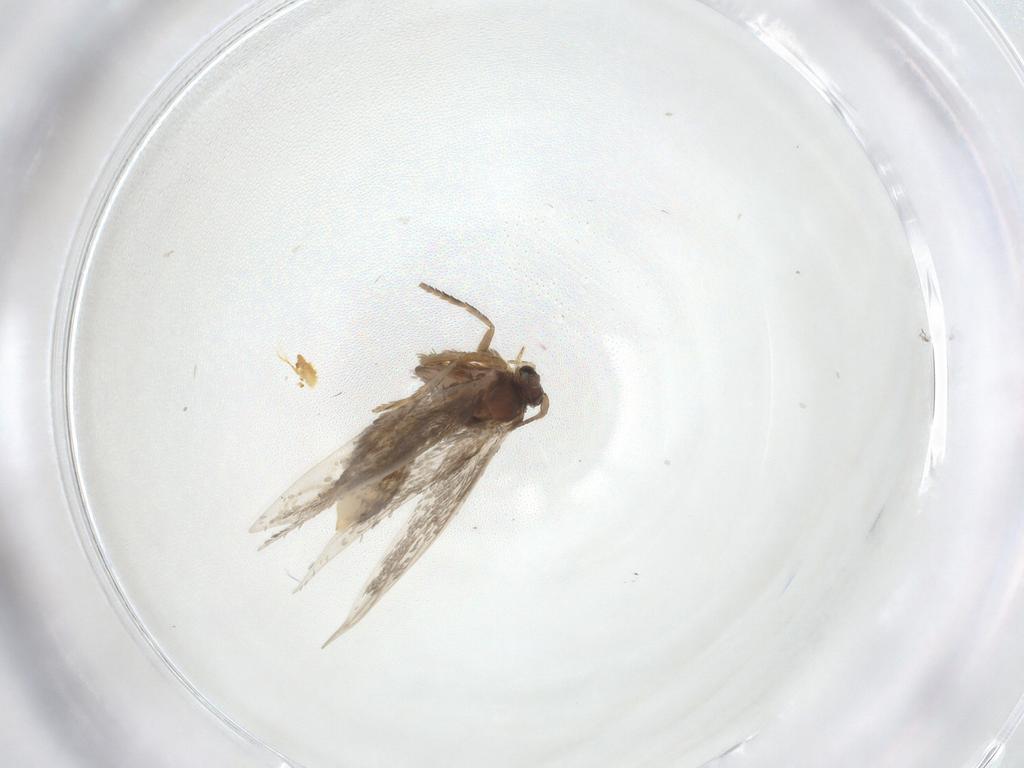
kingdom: Animalia
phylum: Arthropoda
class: Insecta
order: Lepidoptera
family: Nepticulidae
